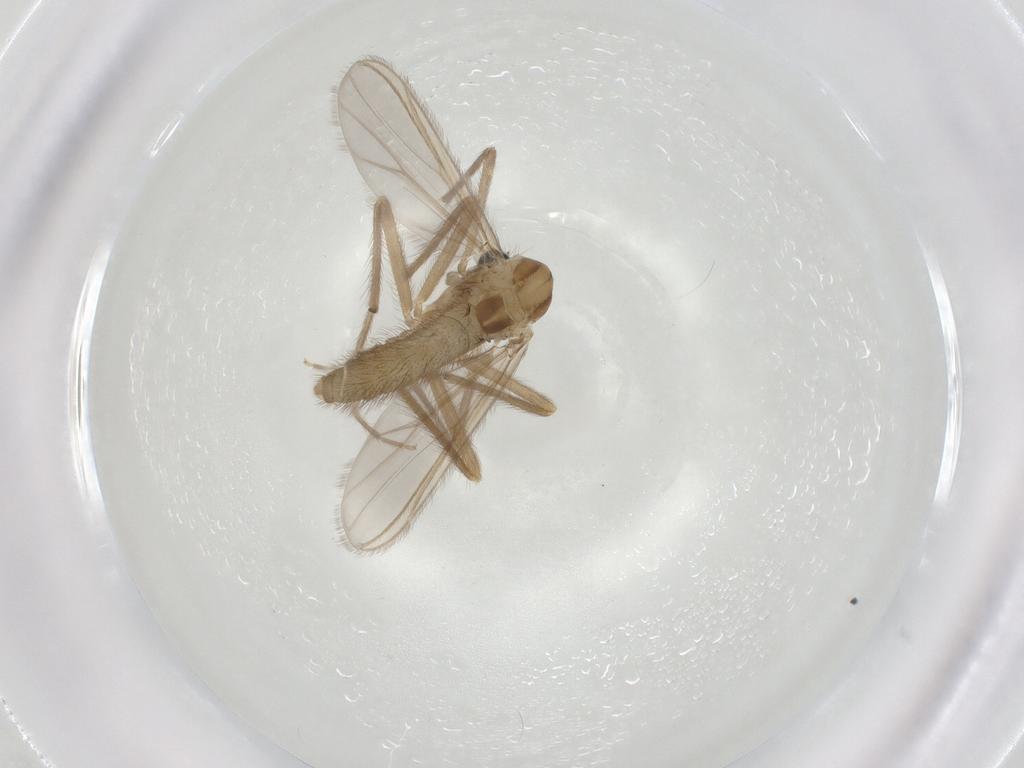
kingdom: Animalia
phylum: Arthropoda
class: Insecta
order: Diptera
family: Chironomidae
